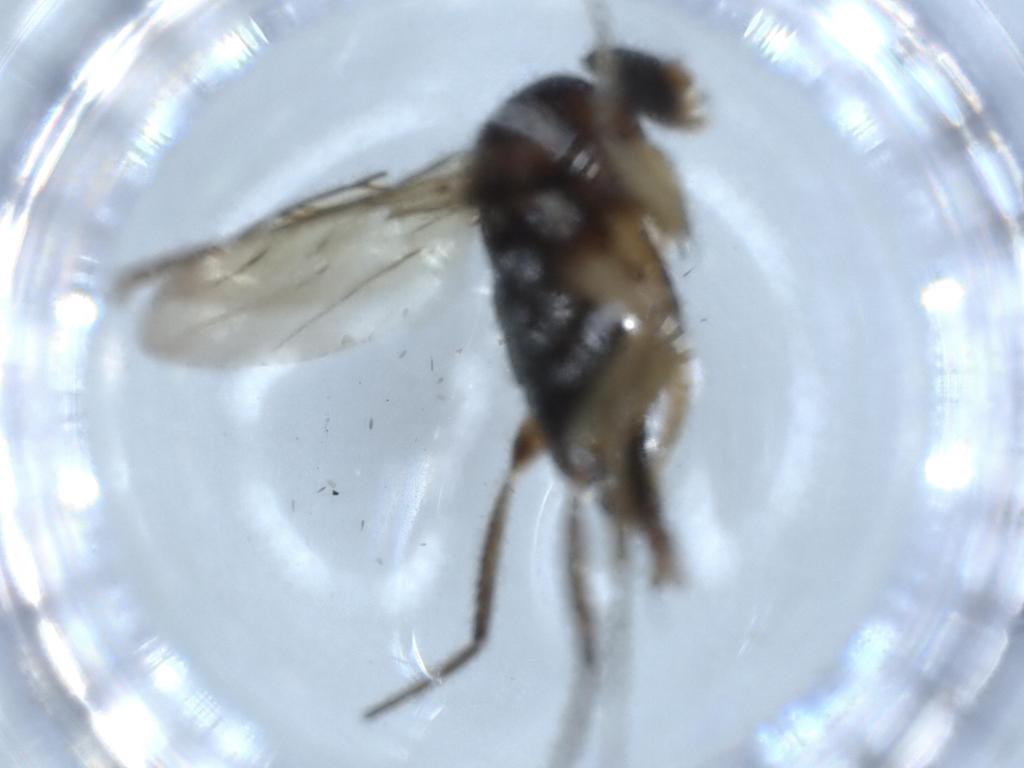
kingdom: Animalia
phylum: Arthropoda
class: Insecta
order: Diptera
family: Phoridae
